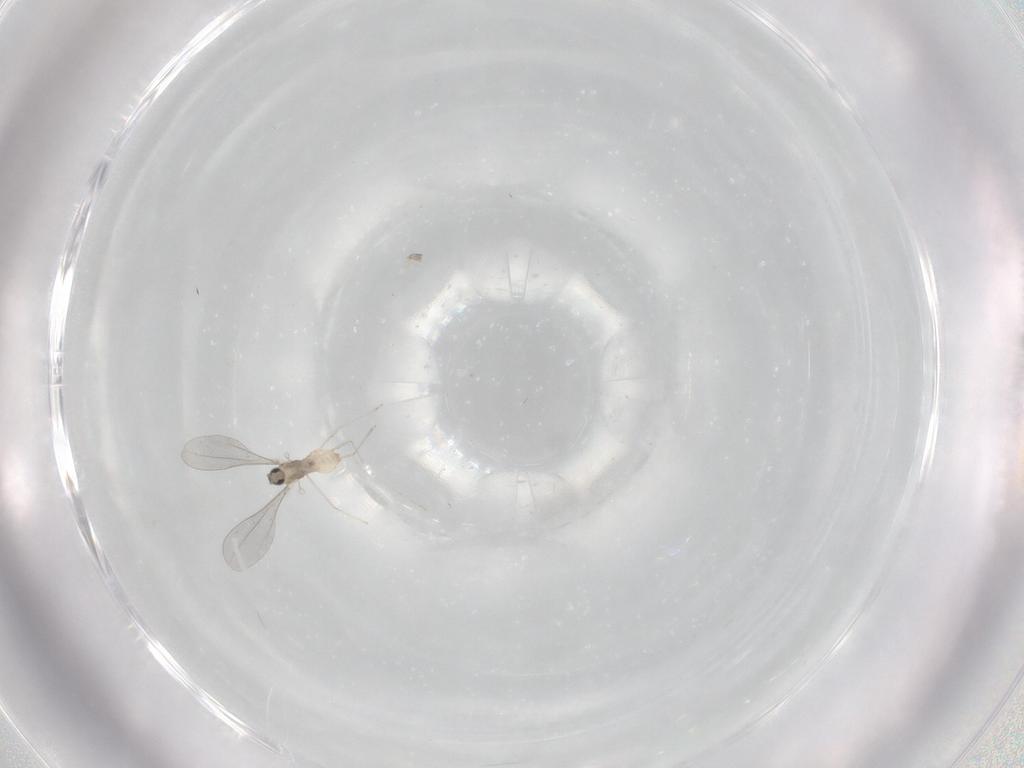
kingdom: Animalia
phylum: Arthropoda
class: Insecta
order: Diptera
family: Cecidomyiidae
